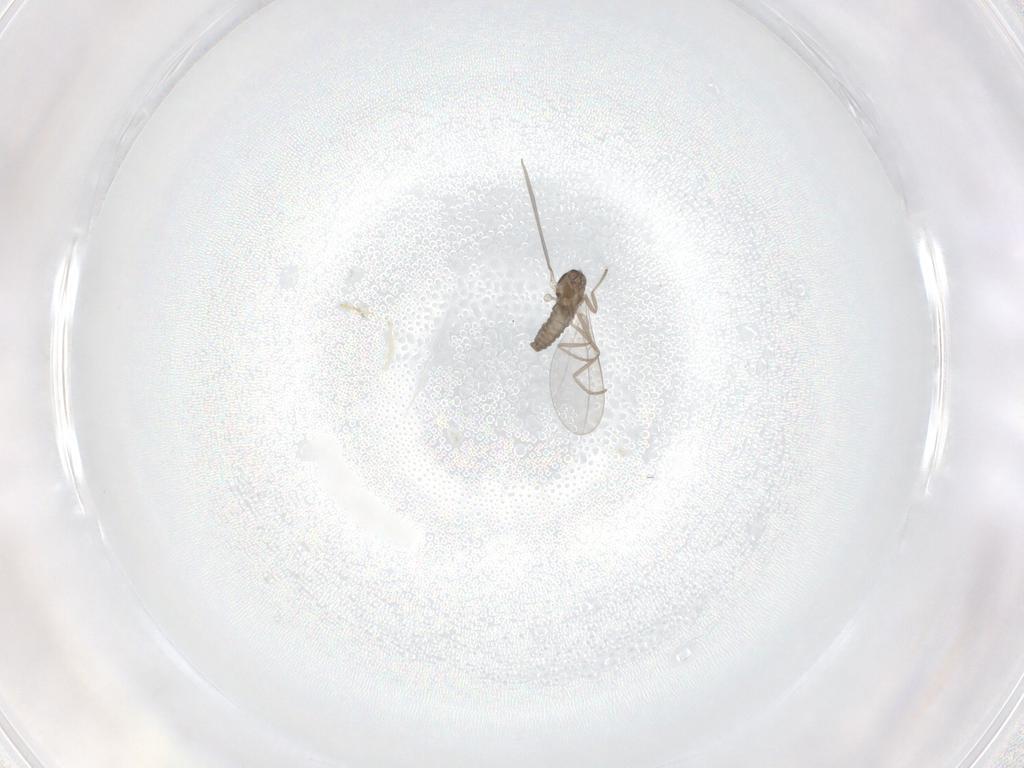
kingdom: Animalia
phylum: Arthropoda
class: Insecta
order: Diptera
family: Cecidomyiidae
